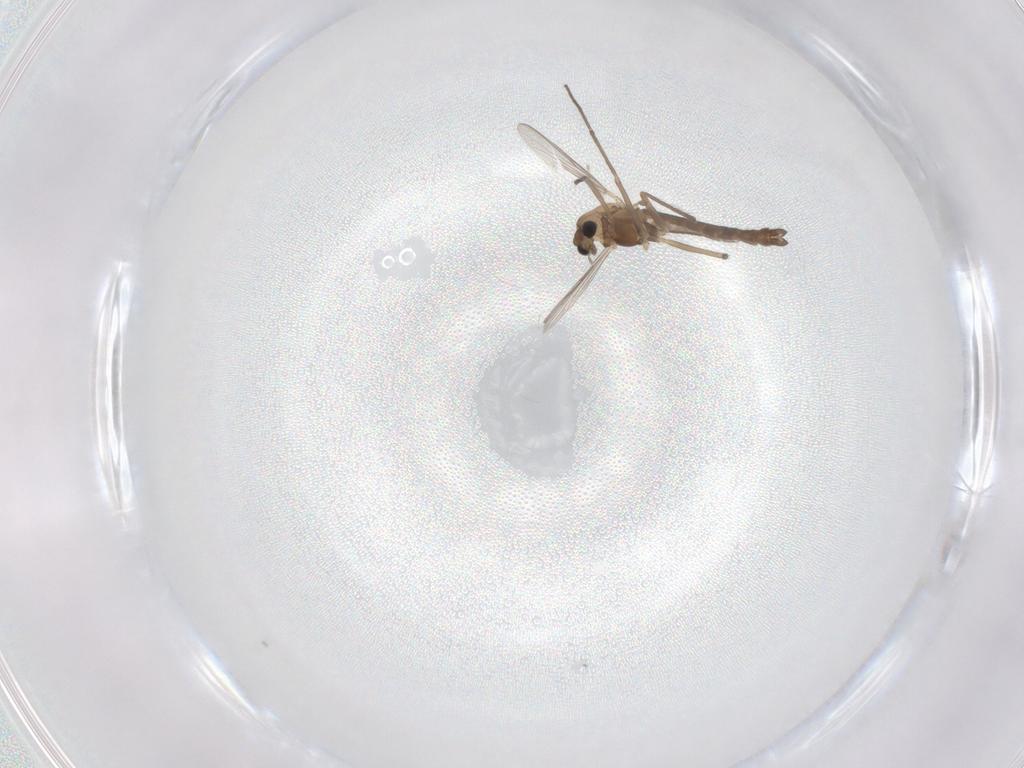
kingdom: Animalia
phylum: Arthropoda
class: Insecta
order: Diptera
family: Chironomidae
